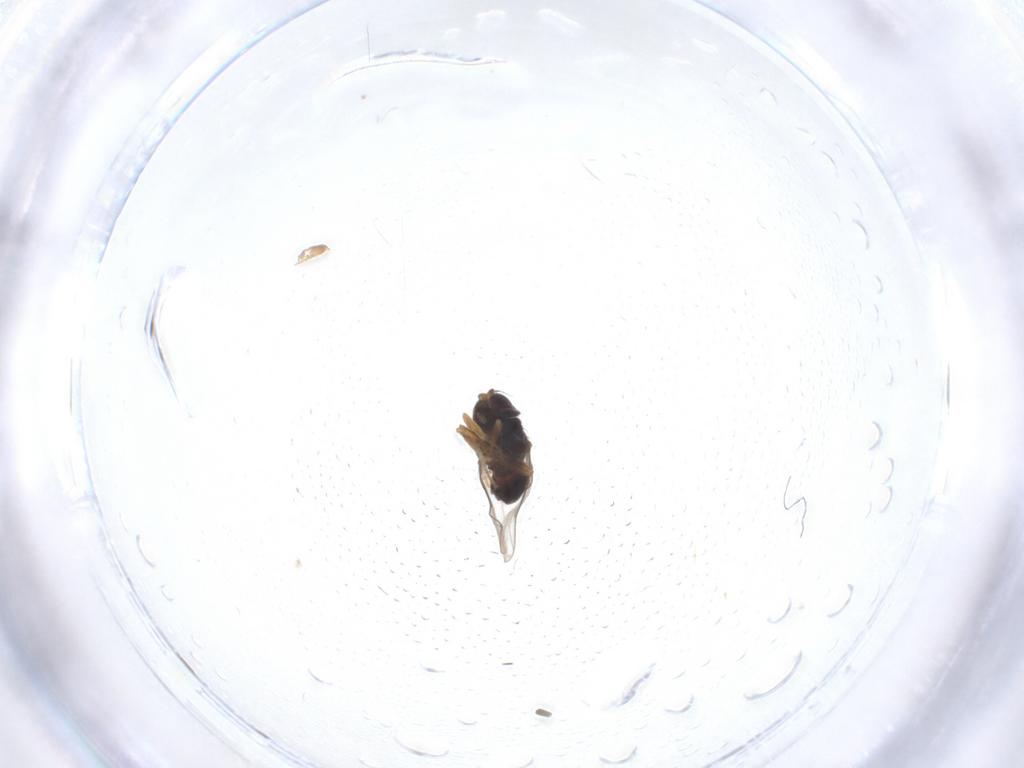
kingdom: Animalia
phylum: Arthropoda
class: Insecta
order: Diptera
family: Chloropidae
